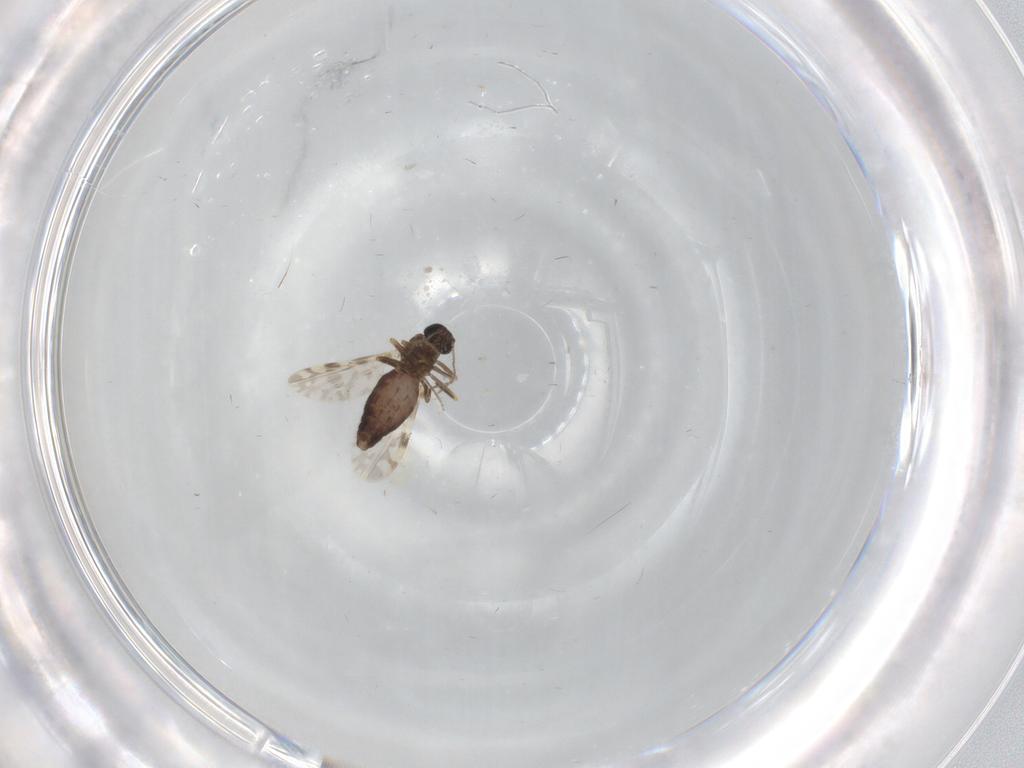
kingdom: Animalia
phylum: Arthropoda
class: Insecta
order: Diptera
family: Ceratopogonidae
